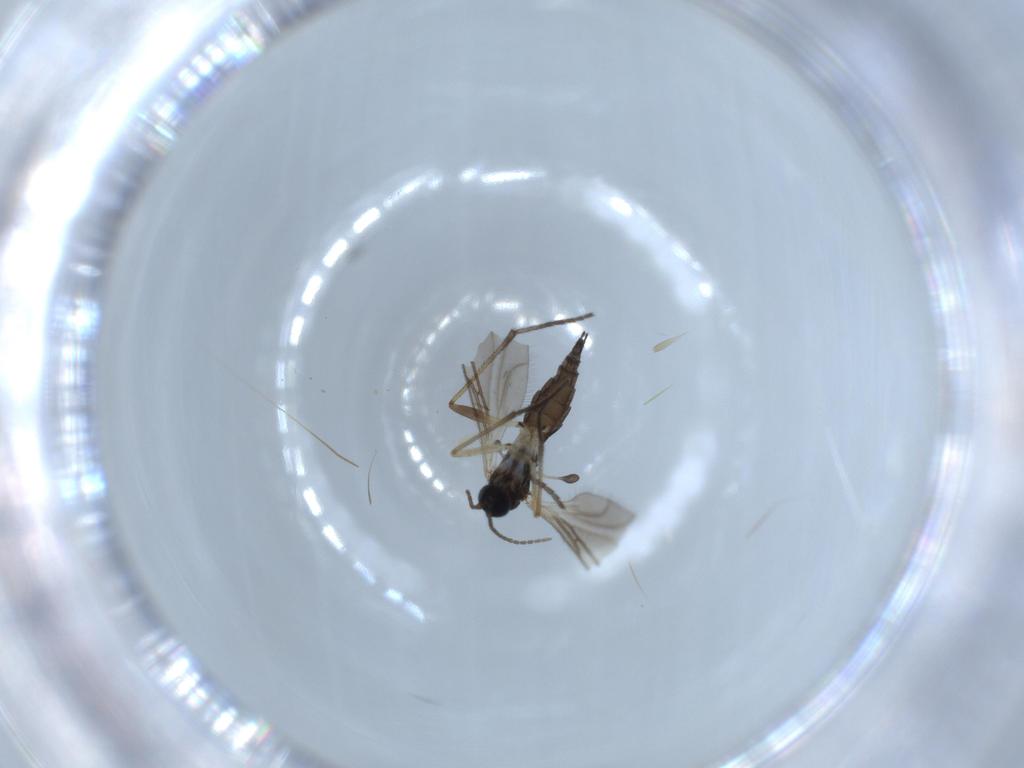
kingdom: Animalia
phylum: Arthropoda
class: Insecta
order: Diptera
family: Sciaridae
